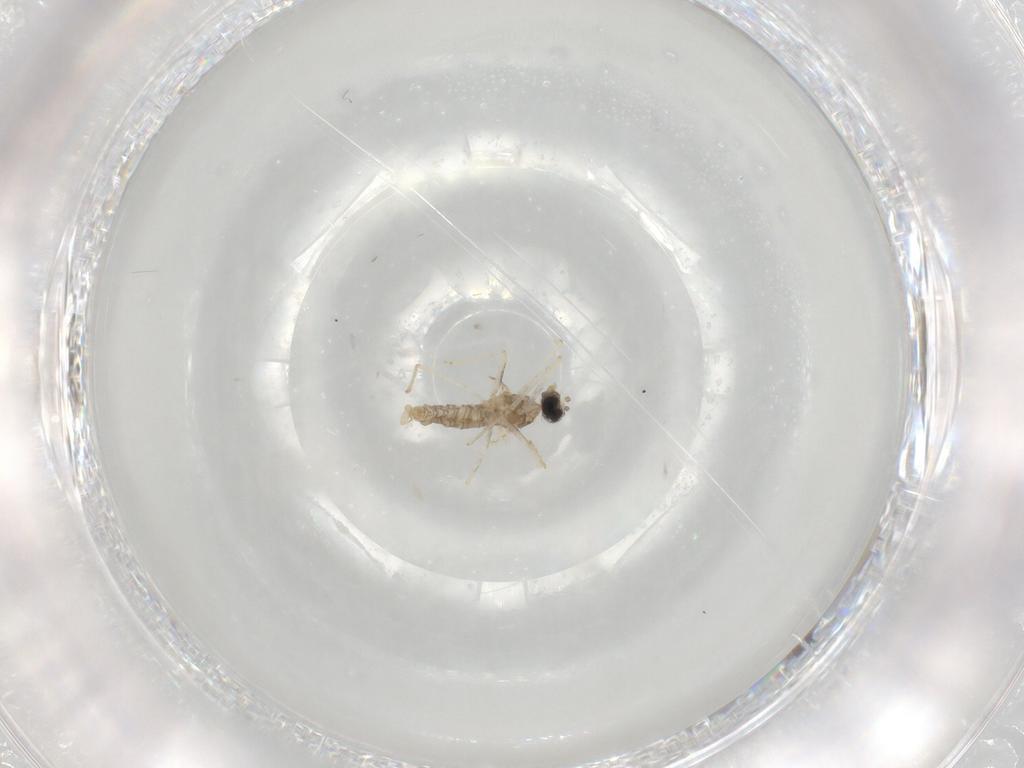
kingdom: Animalia
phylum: Arthropoda
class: Insecta
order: Diptera
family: Cecidomyiidae
